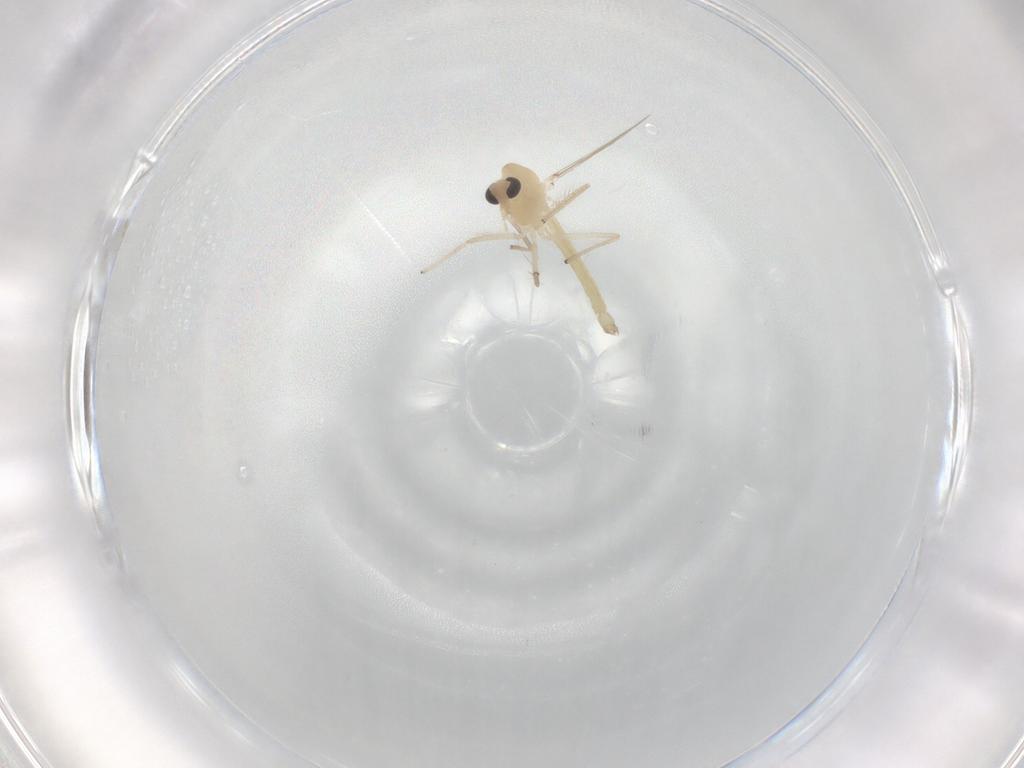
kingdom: Animalia
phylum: Arthropoda
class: Insecta
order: Diptera
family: Chironomidae
